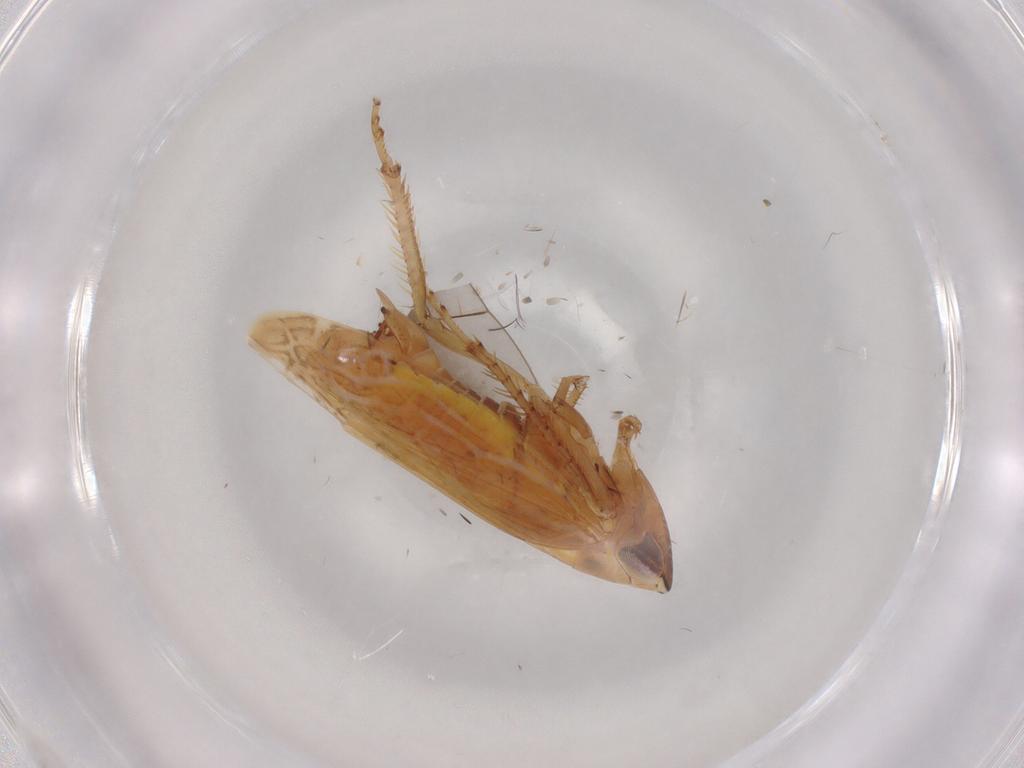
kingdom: Animalia
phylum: Arthropoda
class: Insecta
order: Hemiptera
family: Cicadellidae
